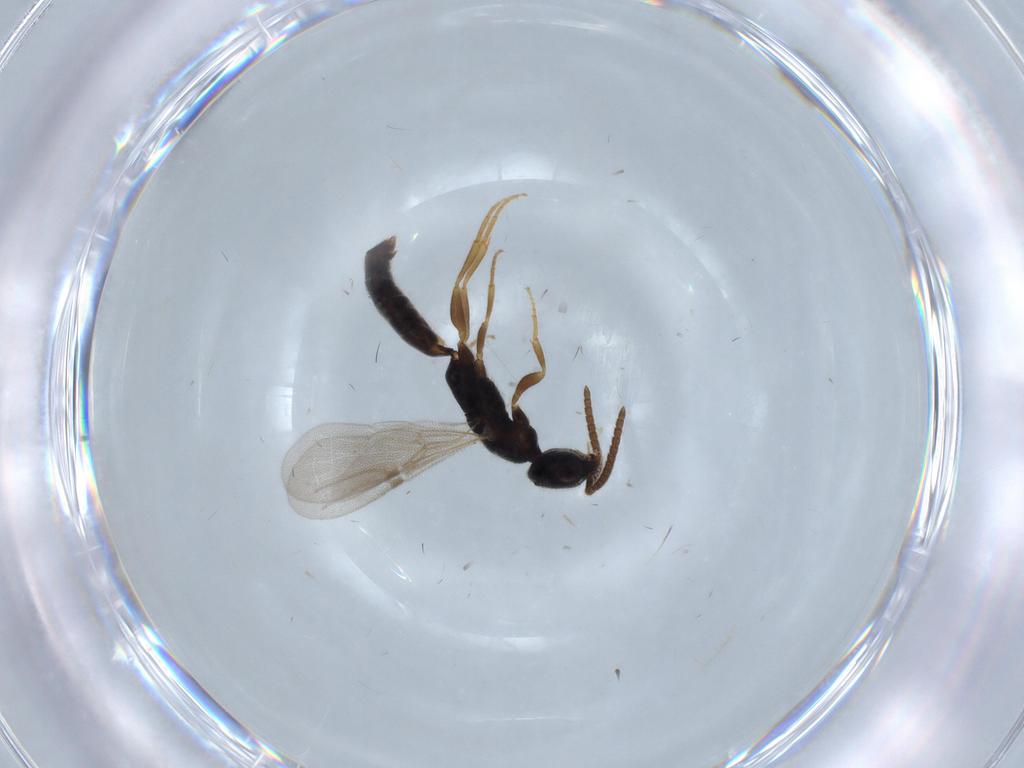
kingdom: Animalia
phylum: Arthropoda
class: Insecta
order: Hymenoptera
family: Bethylidae
